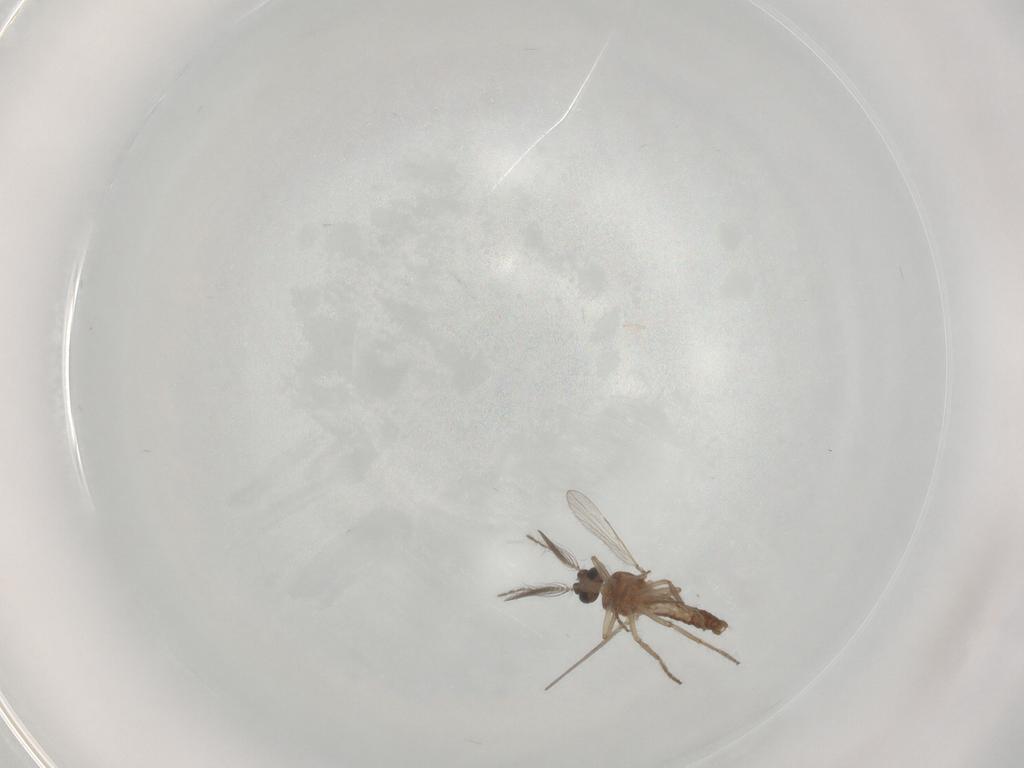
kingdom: Animalia
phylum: Arthropoda
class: Insecta
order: Diptera
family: Ceratopogonidae
